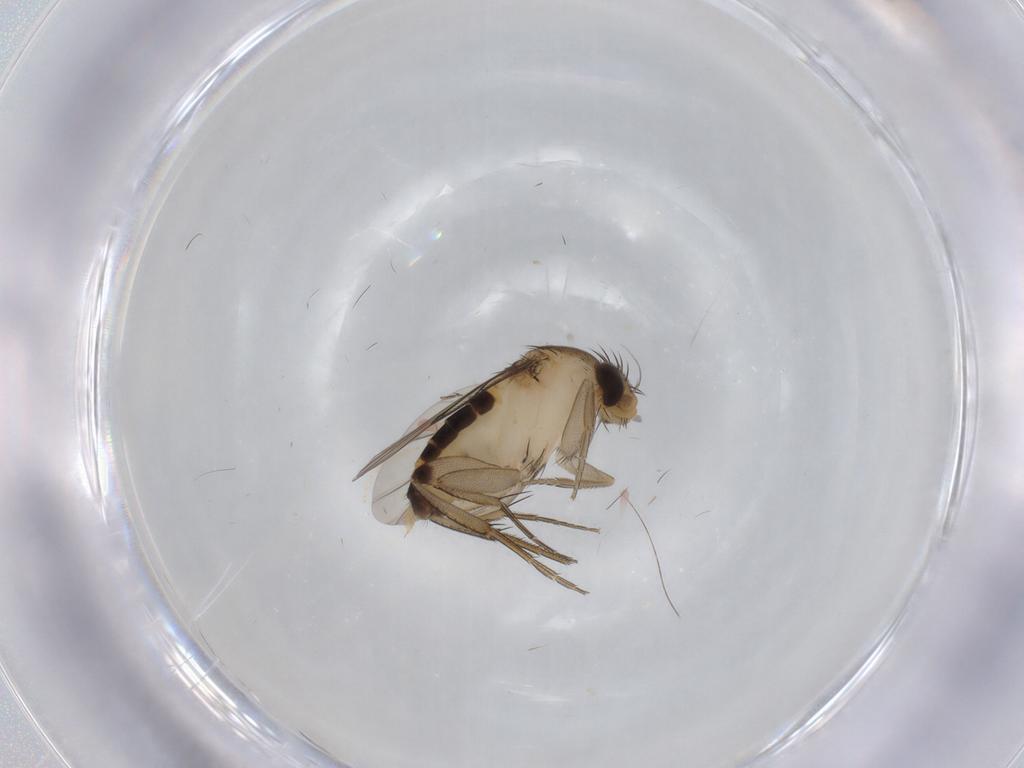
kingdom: Animalia
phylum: Arthropoda
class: Insecta
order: Diptera
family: Phoridae
